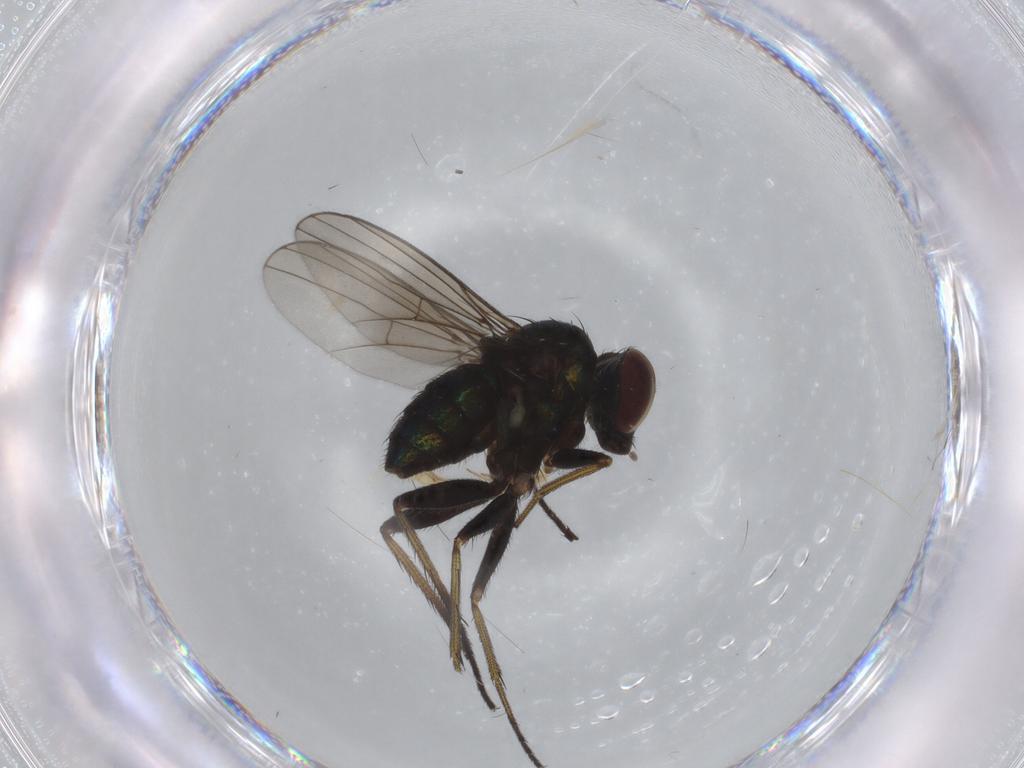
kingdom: Animalia
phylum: Arthropoda
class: Insecta
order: Diptera
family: Dolichopodidae
